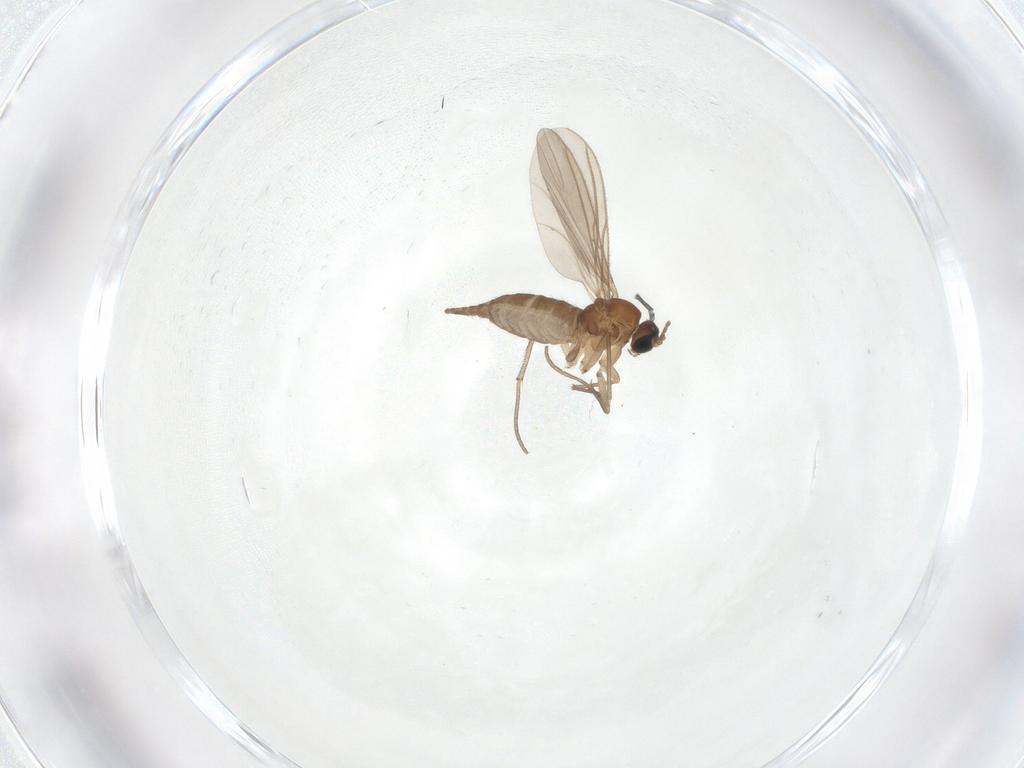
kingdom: Animalia
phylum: Arthropoda
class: Insecta
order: Diptera
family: Sciaridae
